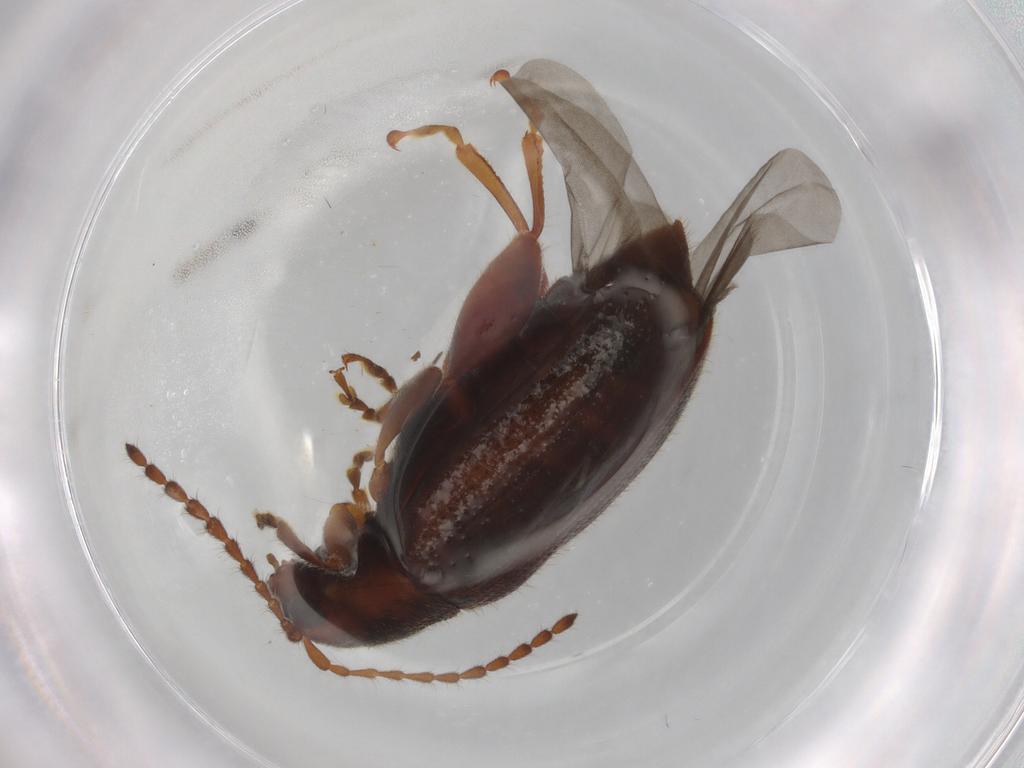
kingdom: Animalia
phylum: Arthropoda
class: Insecta
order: Coleoptera
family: Chrysomelidae
